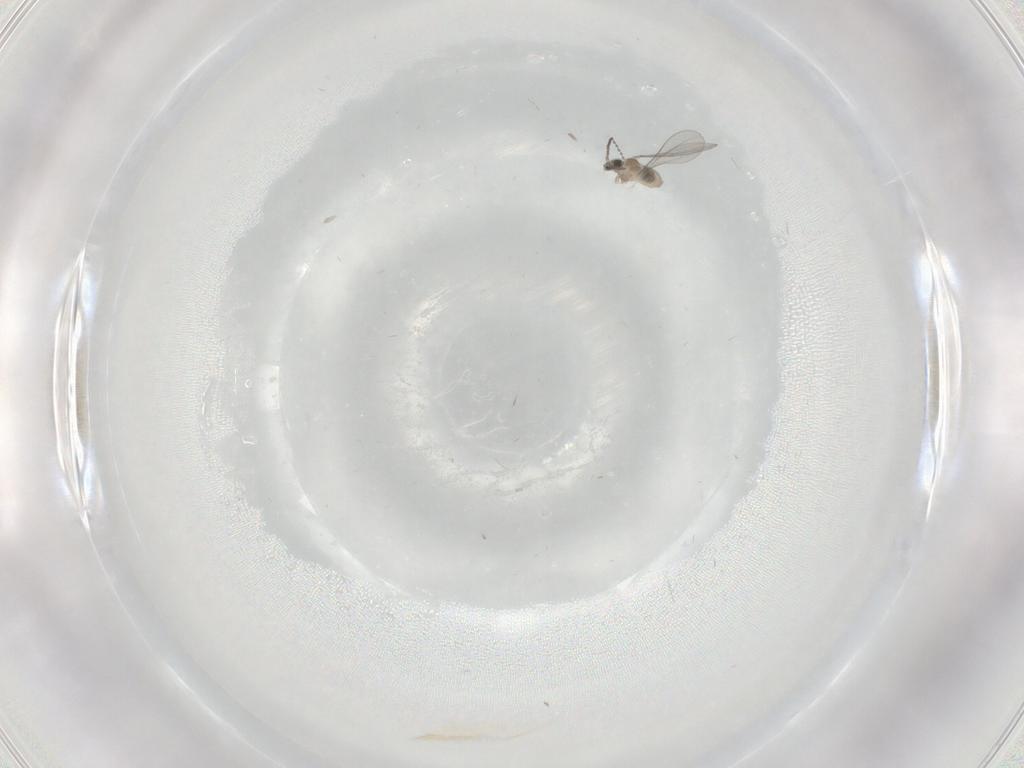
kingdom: Animalia
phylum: Arthropoda
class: Insecta
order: Diptera
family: Cecidomyiidae
